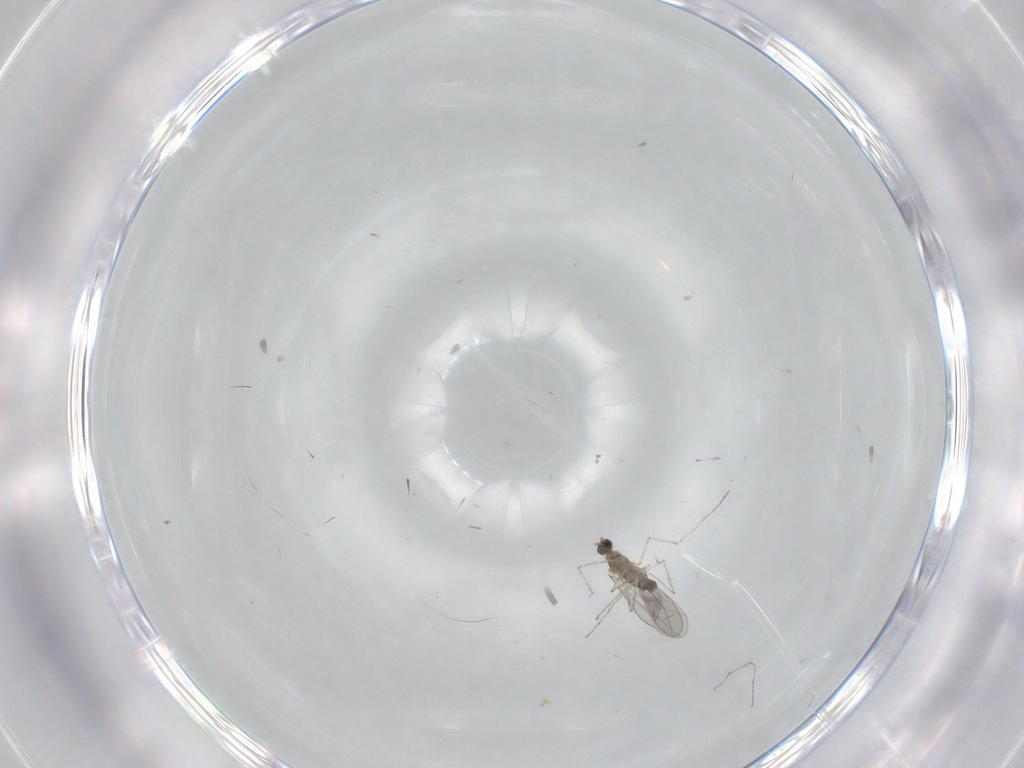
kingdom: Animalia
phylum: Arthropoda
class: Insecta
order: Diptera
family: Cecidomyiidae
